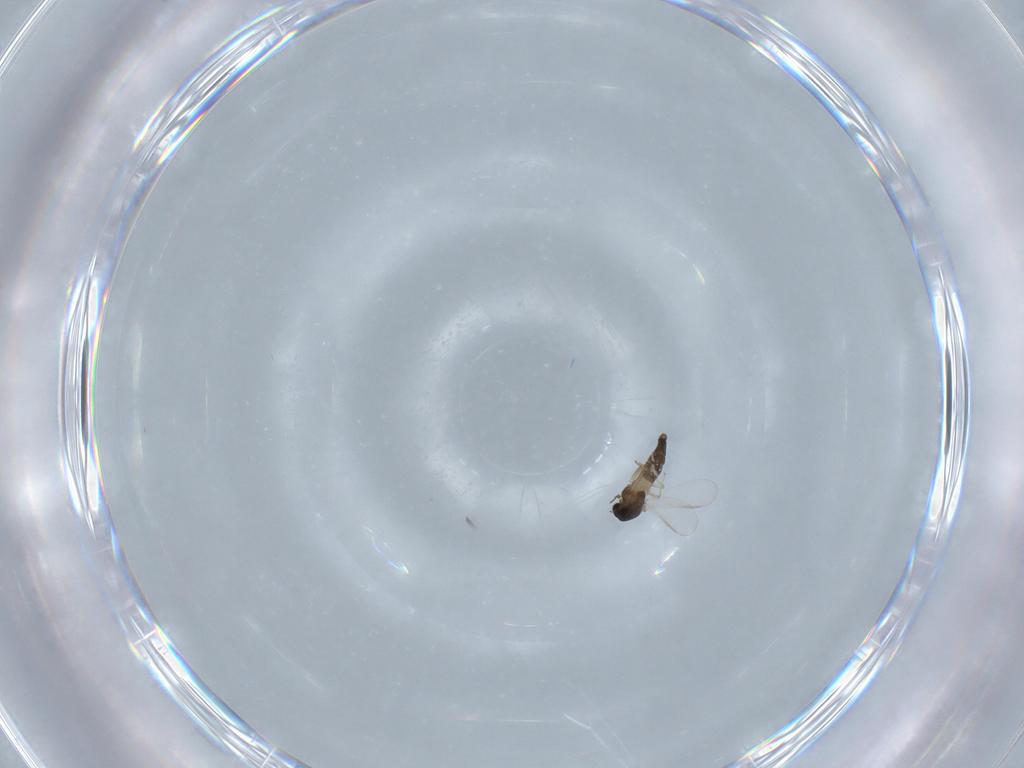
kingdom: Animalia
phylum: Arthropoda
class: Insecta
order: Diptera
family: Chironomidae
